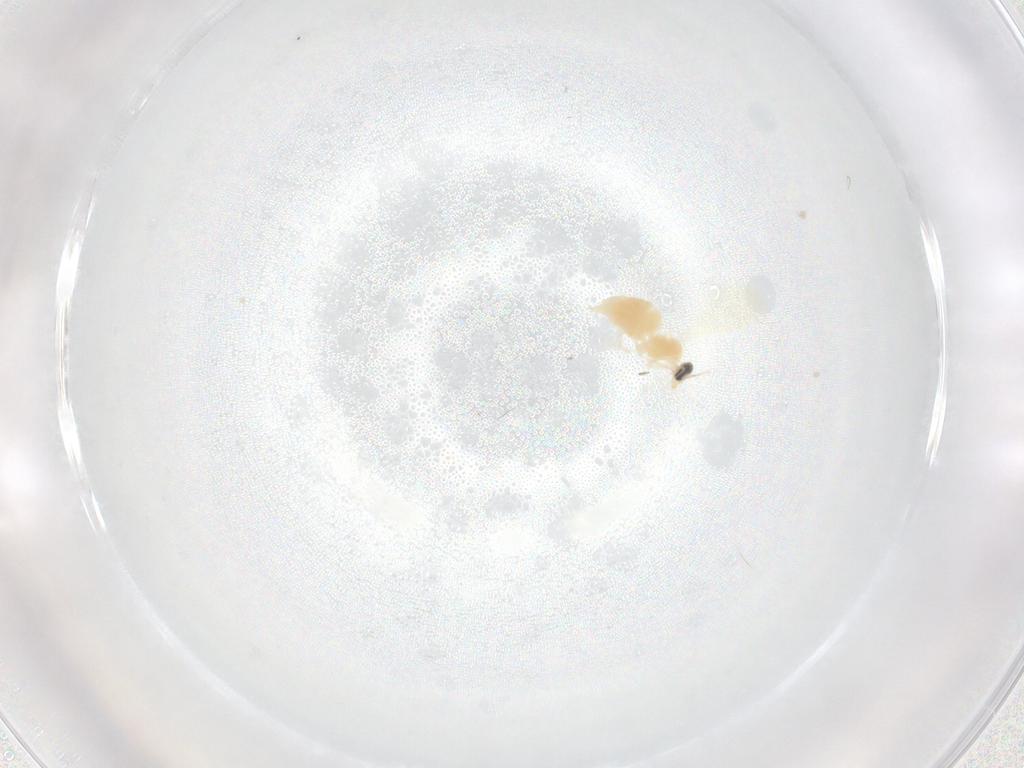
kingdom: Animalia
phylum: Arthropoda
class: Insecta
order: Diptera
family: Cecidomyiidae
